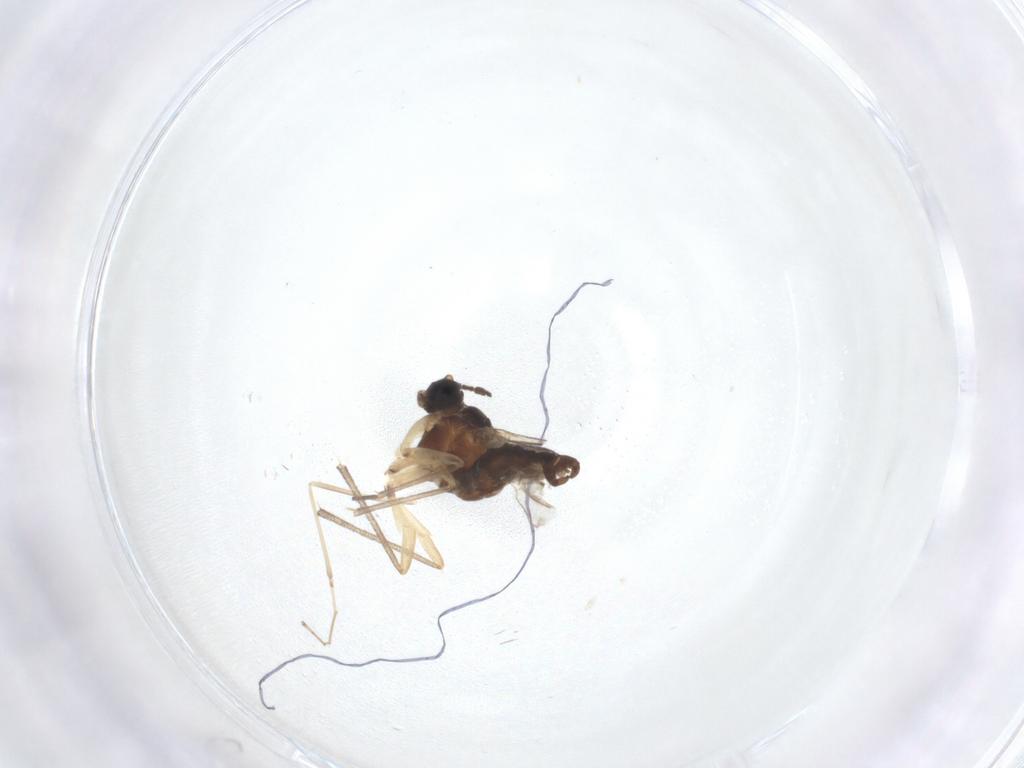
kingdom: Animalia
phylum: Arthropoda
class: Insecta
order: Diptera
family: Sciaridae
